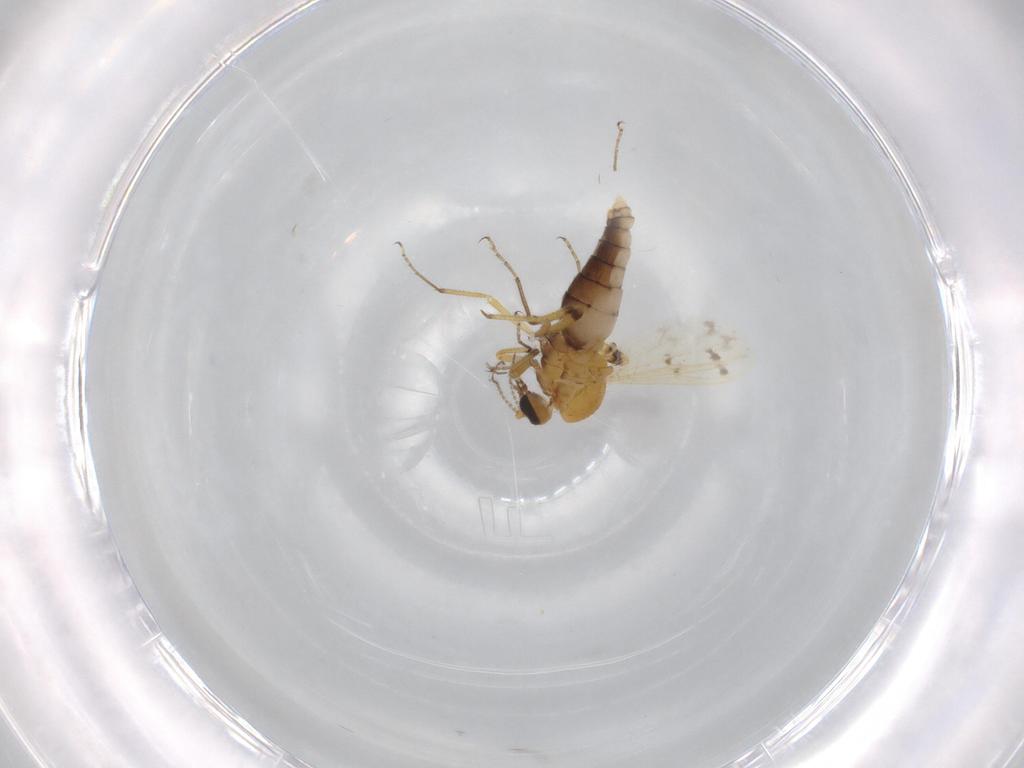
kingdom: Animalia
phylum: Arthropoda
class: Insecta
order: Diptera
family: Ceratopogonidae
